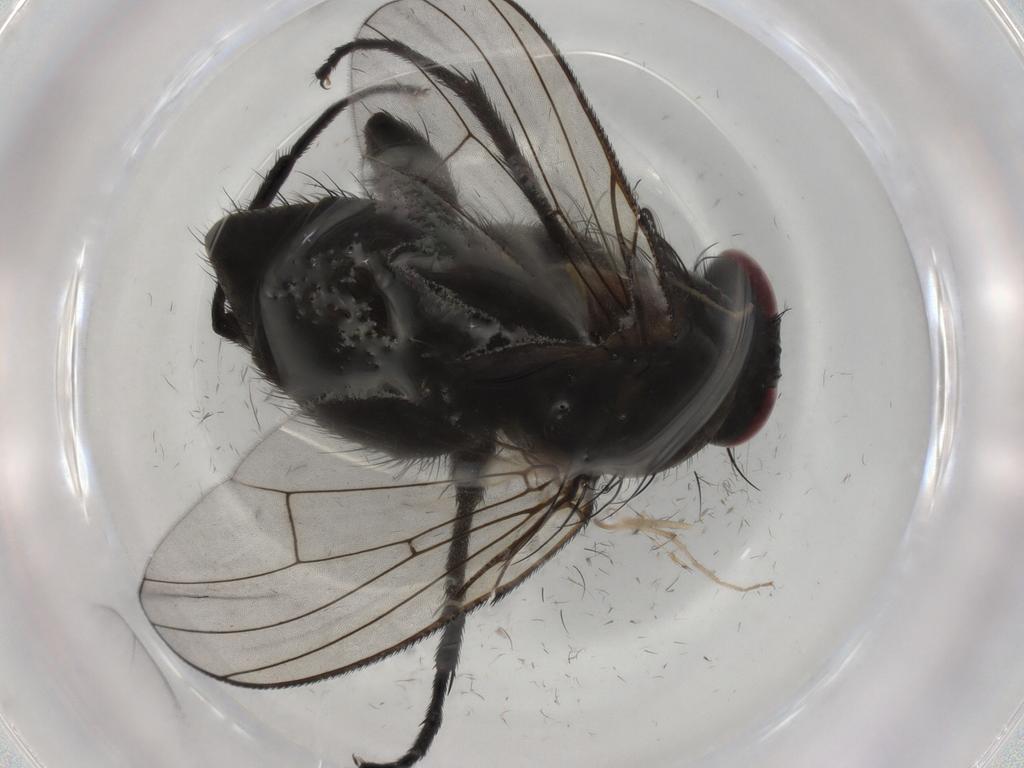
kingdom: Animalia
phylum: Arthropoda
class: Insecta
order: Diptera
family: Muscidae
